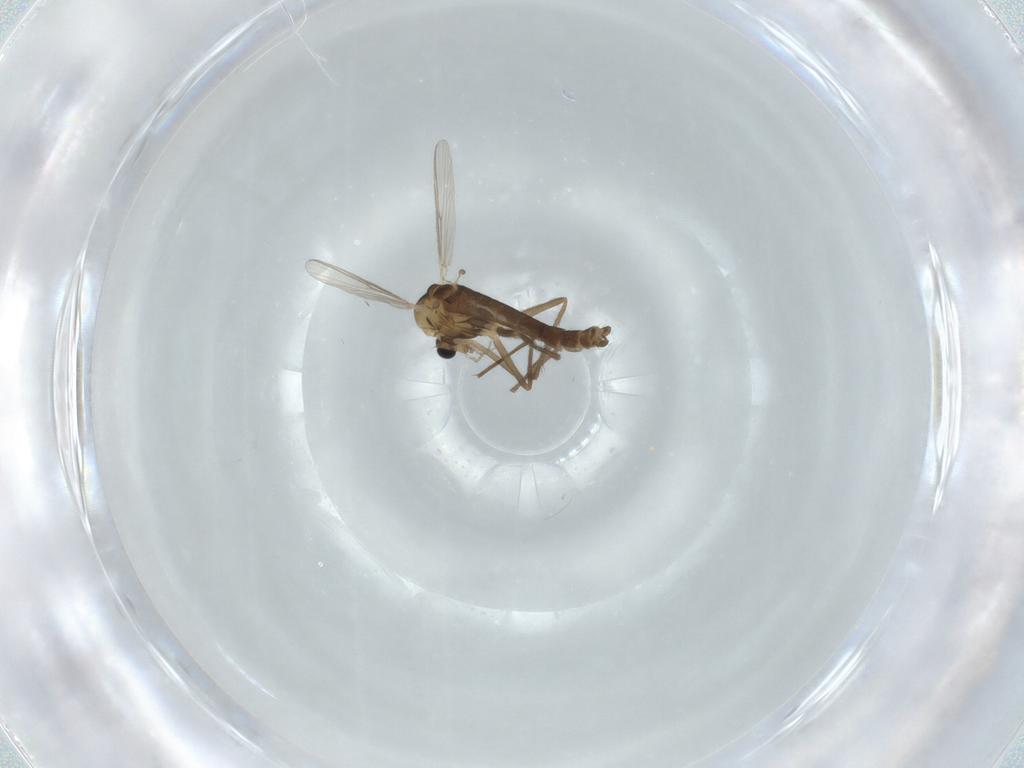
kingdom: Animalia
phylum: Arthropoda
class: Insecta
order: Diptera
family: Chironomidae
